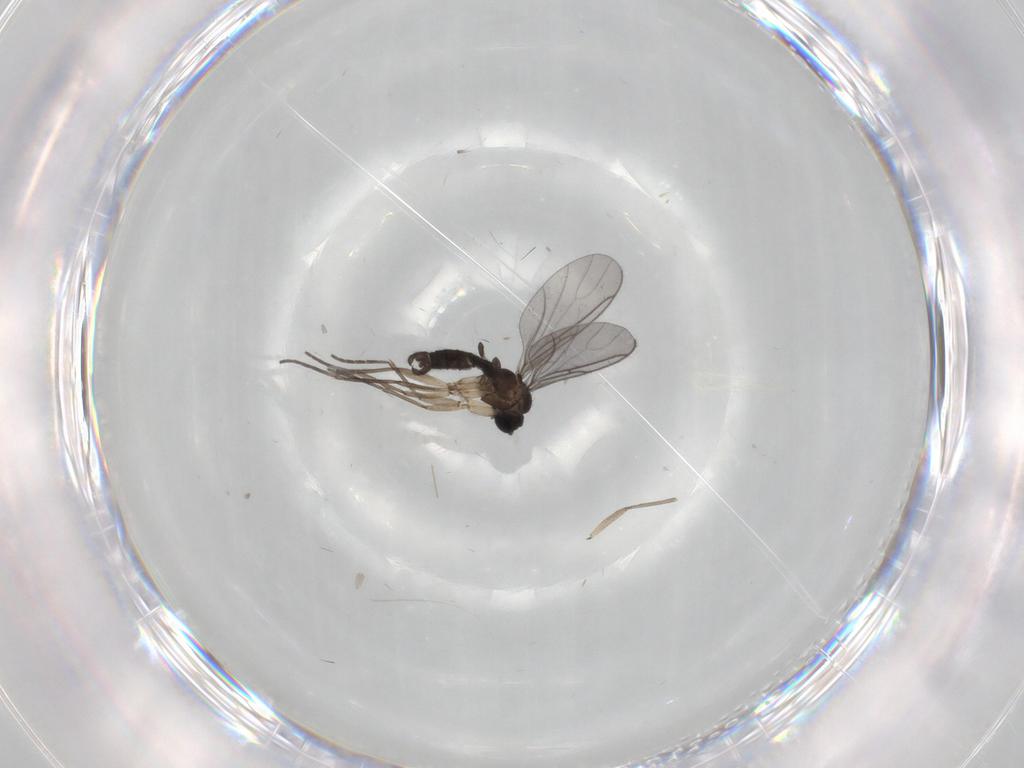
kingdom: Animalia
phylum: Arthropoda
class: Insecta
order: Diptera
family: Sciaridae
